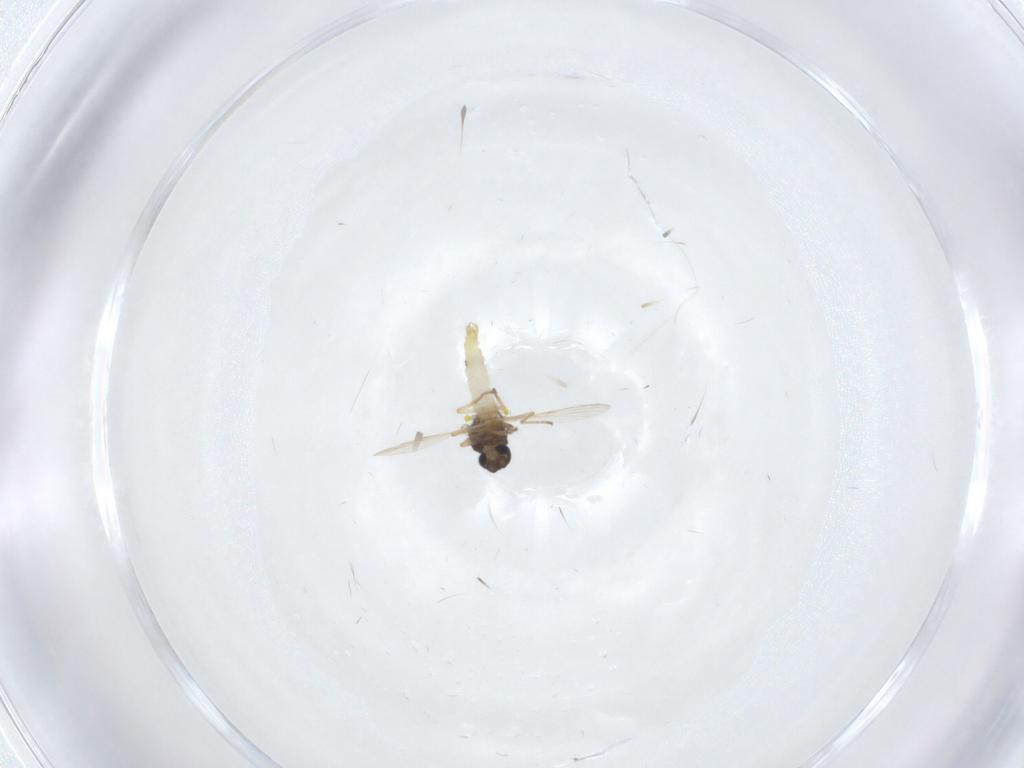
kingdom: Animalia
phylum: Arthropoda
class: Insecta
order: Diptera
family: Ceratopogonidae
